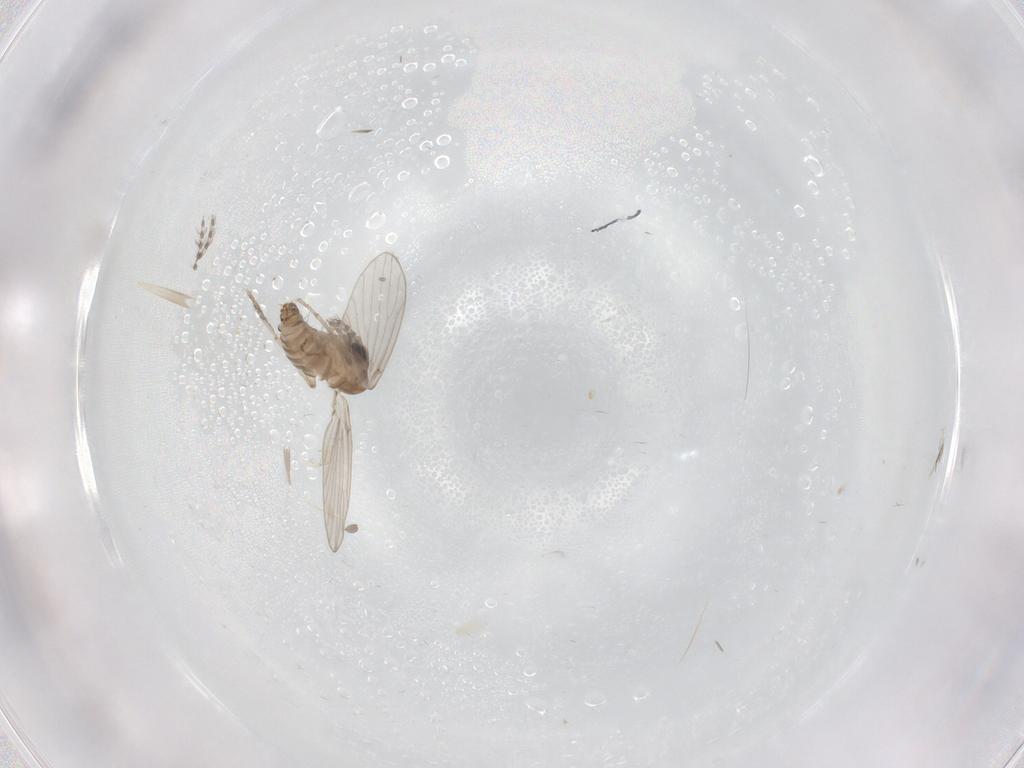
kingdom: Animalia
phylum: Arthropoda
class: Insecta
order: Diptera
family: Psychodidae
